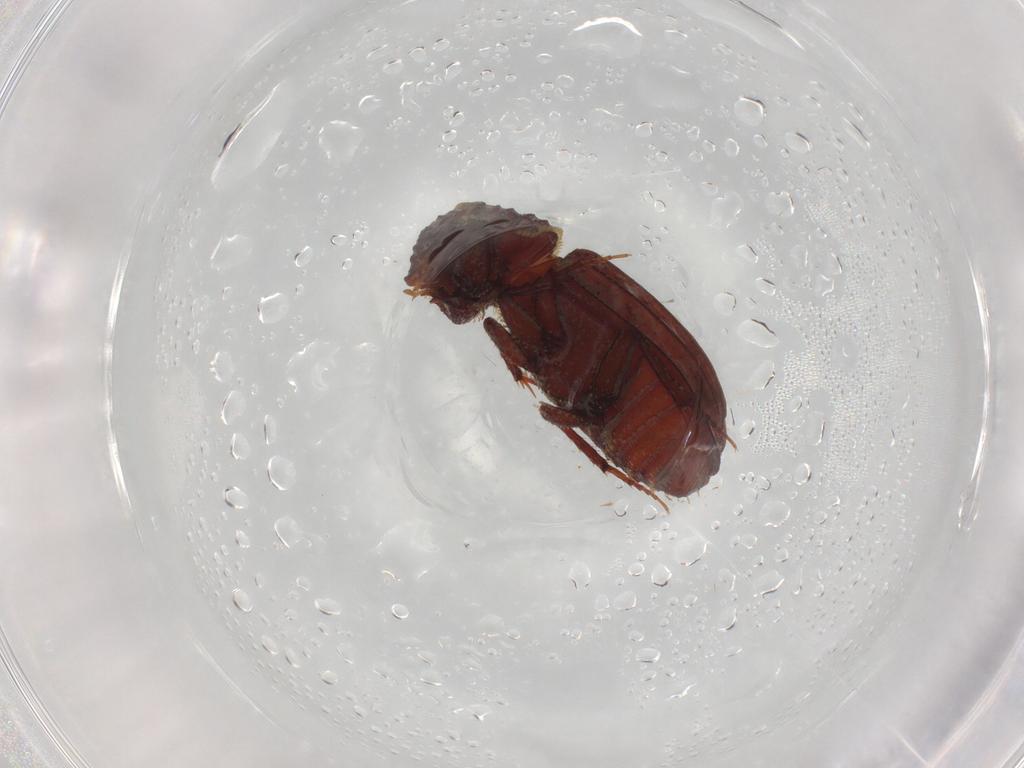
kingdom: Animalia
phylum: Arthropoda
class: Insecta
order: Coleoptera
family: Hydrophilidae
